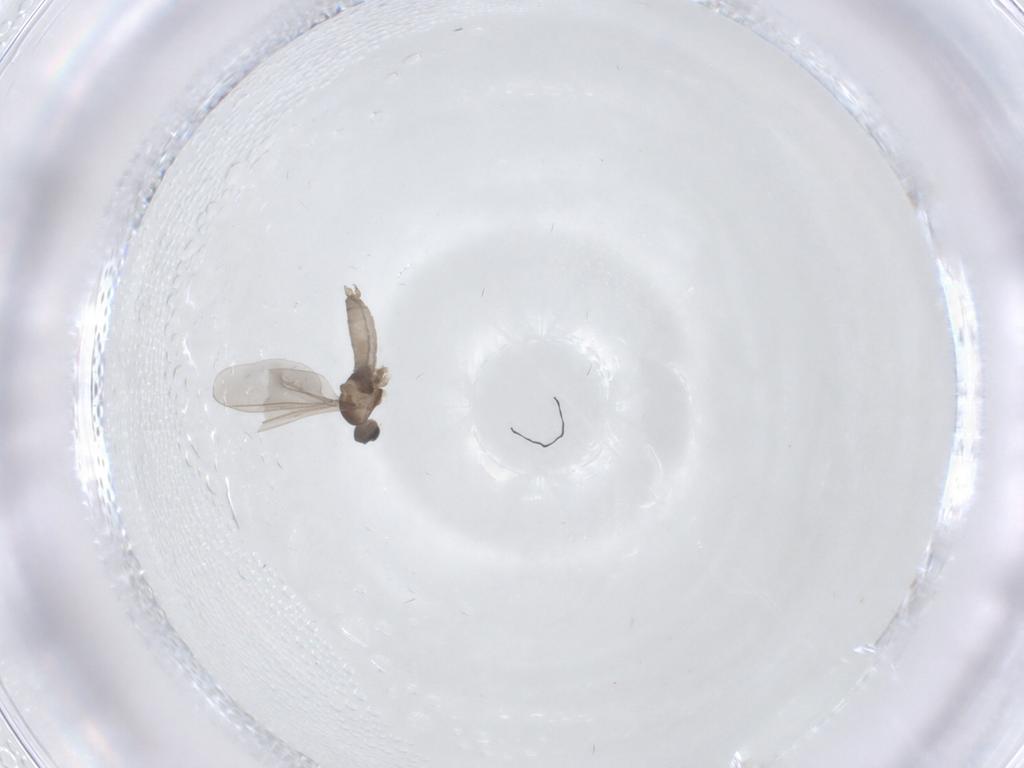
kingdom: Animalia
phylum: Arthropoda
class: Insecta
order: Diptera
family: Cecidomyiidae
